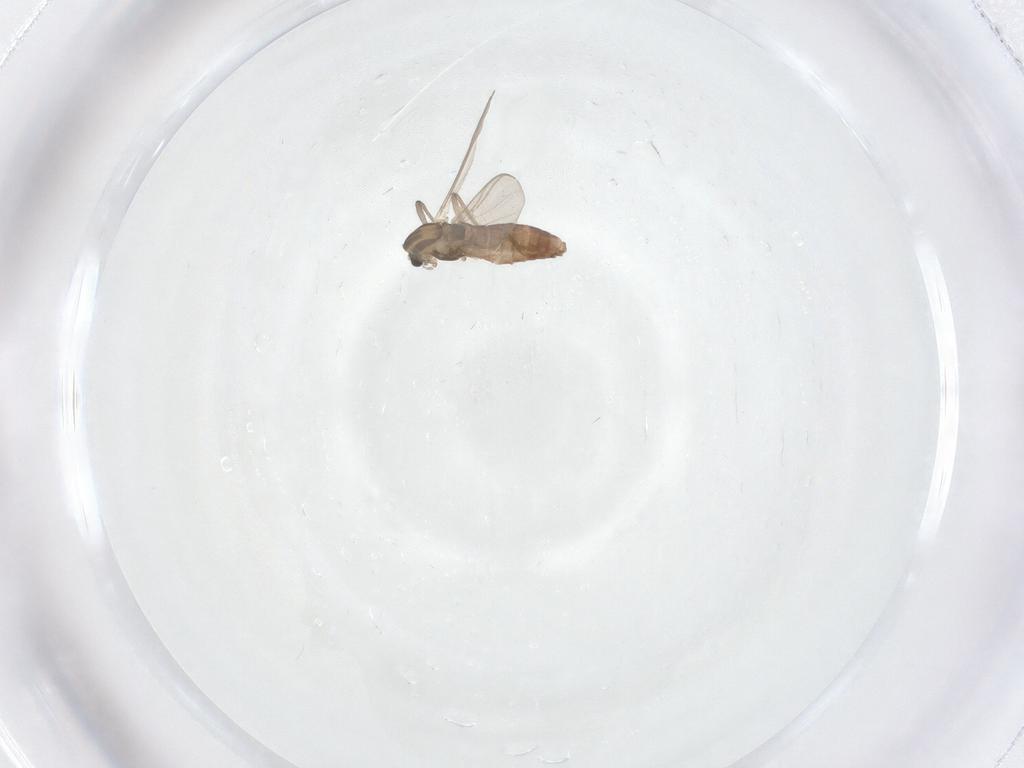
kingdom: Animalia
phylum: Arthropoda
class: Insecta
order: Diptera
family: Chironomidae
